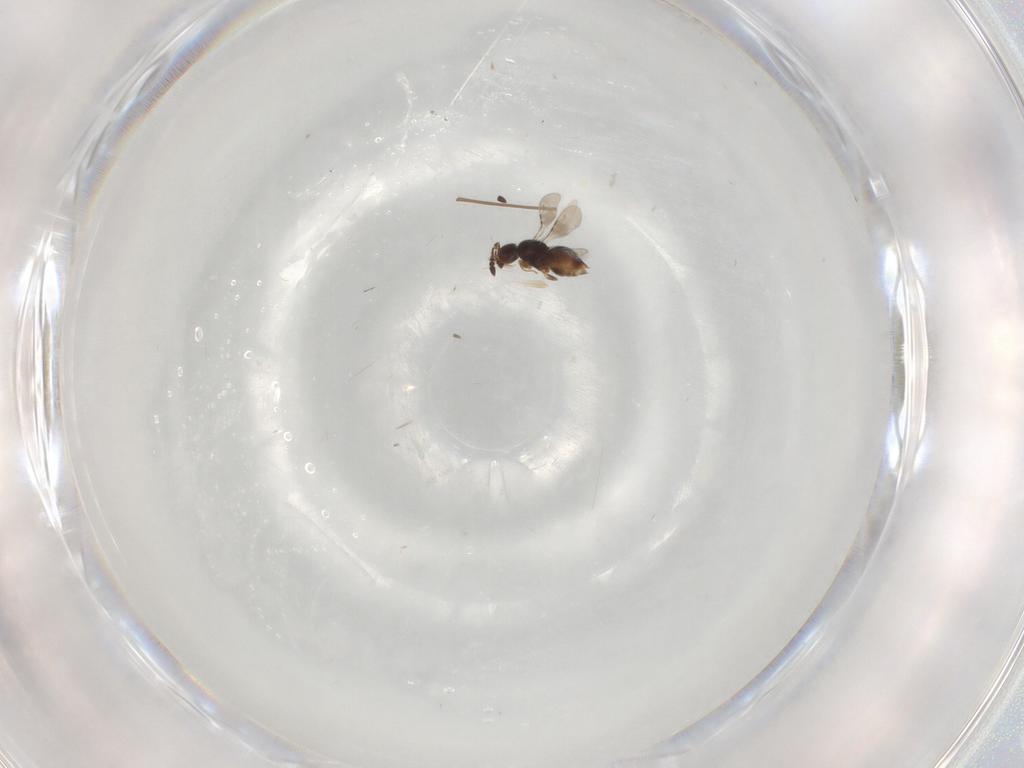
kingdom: Animalia
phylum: Arthropoda
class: Insecta
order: Hymenoptera
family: Ceraphronidae
